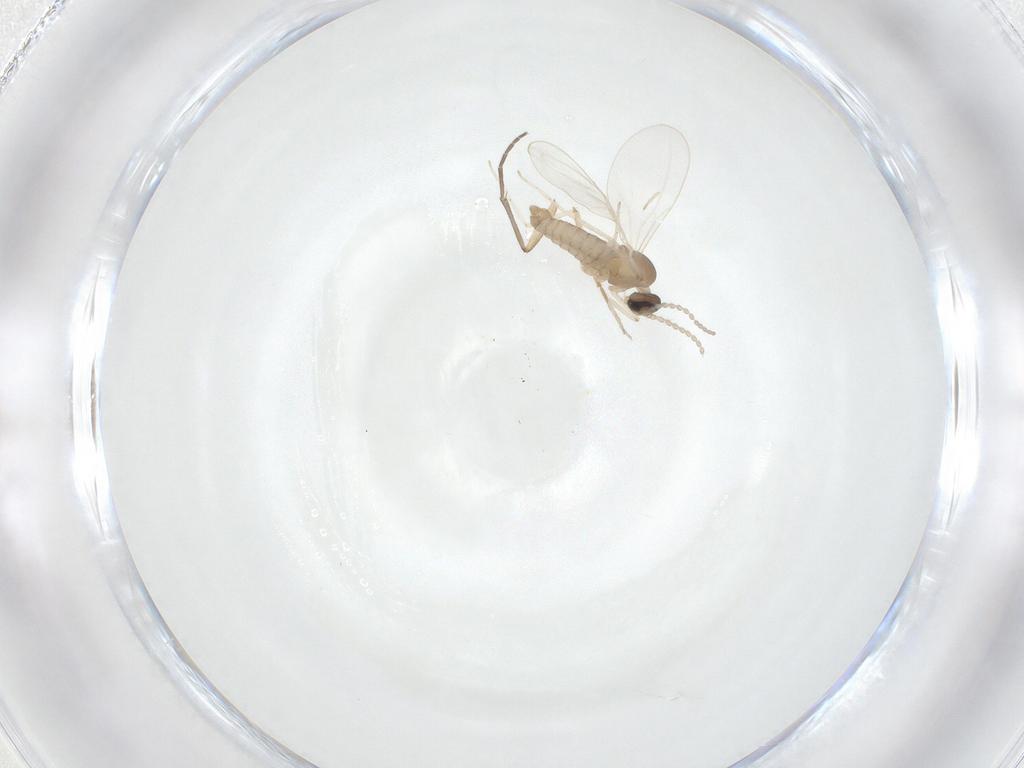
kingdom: Animalia
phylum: Arthropoda
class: Insecta
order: Diptera
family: Cecidomyiidae
